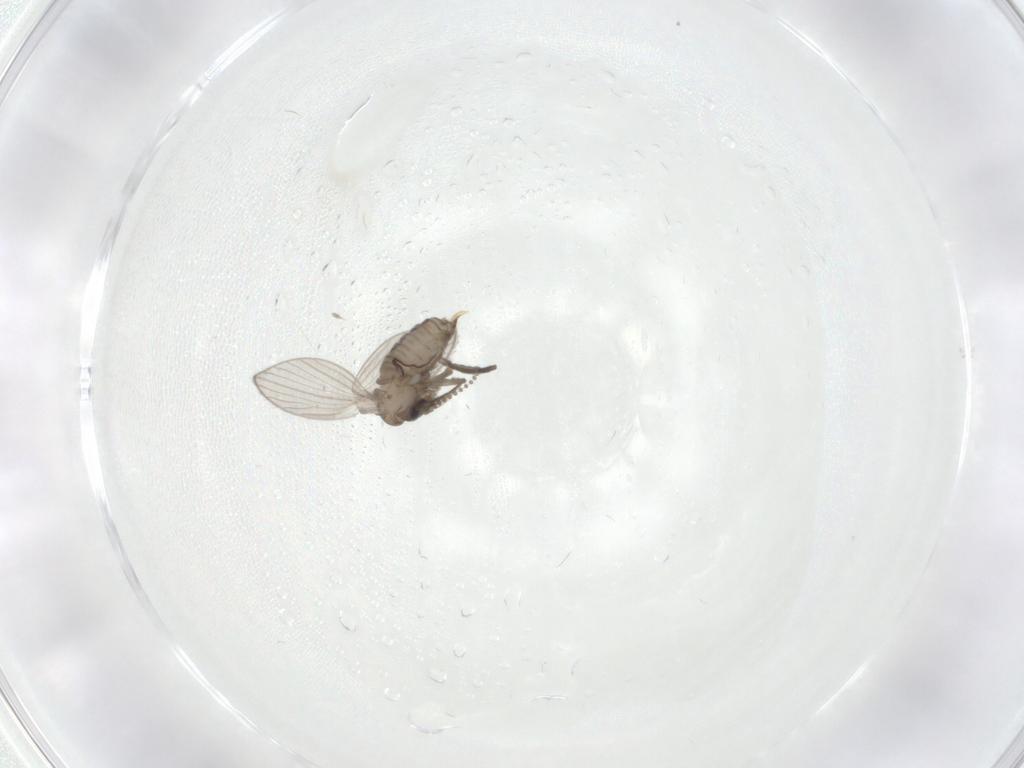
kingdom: Animalia
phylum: Arthropoda
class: Insecta
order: Diptera
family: Psychodidae
